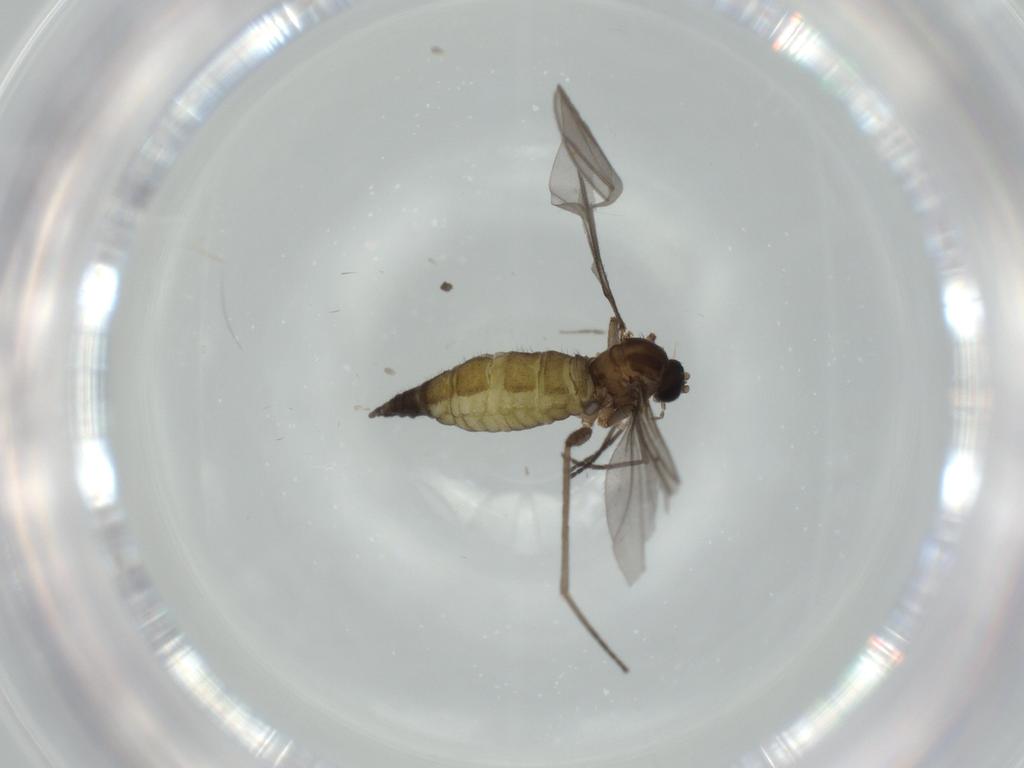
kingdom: Animalia
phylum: Arthropoda
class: Insecta
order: Diptera
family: Sciaridae
